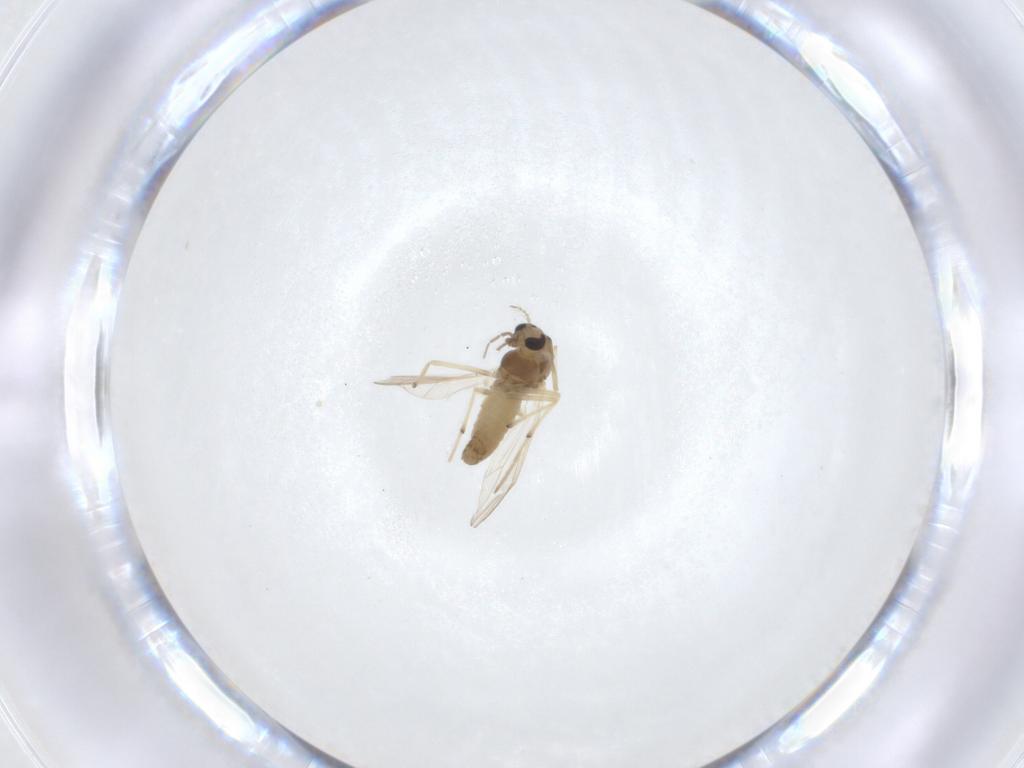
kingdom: Animalia
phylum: Arthropoda
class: Insecta
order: Diptera
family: Chironomidae
